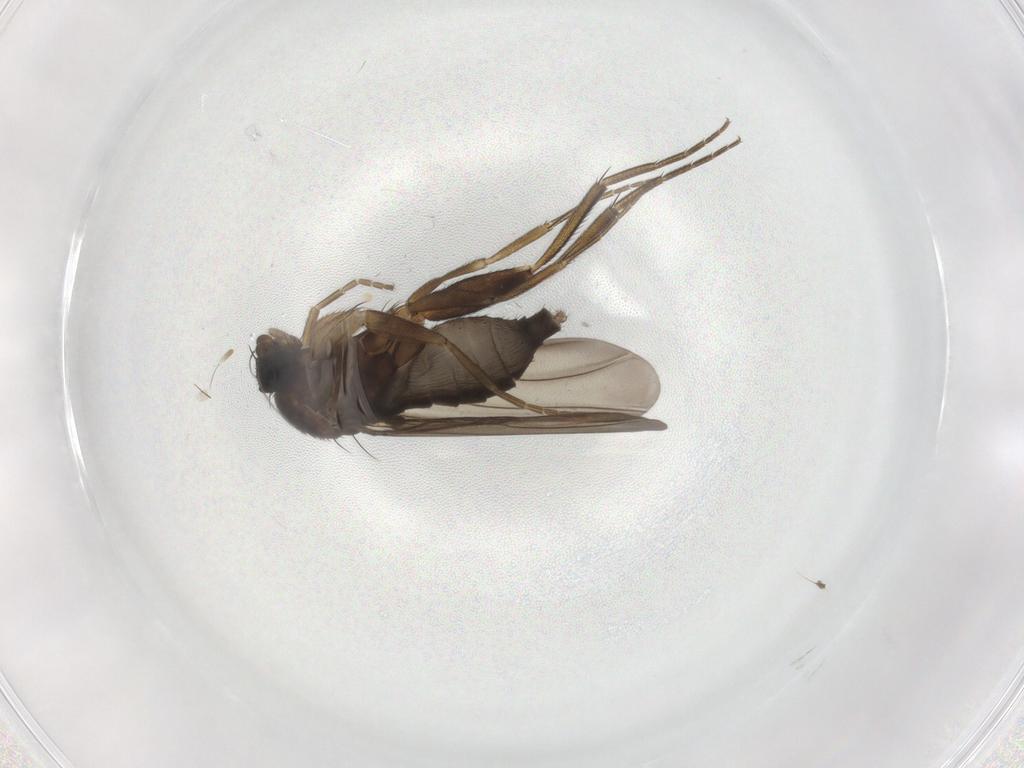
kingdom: Animalia
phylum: Arthropoda
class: Insecta
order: Diptera
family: Phoridae
